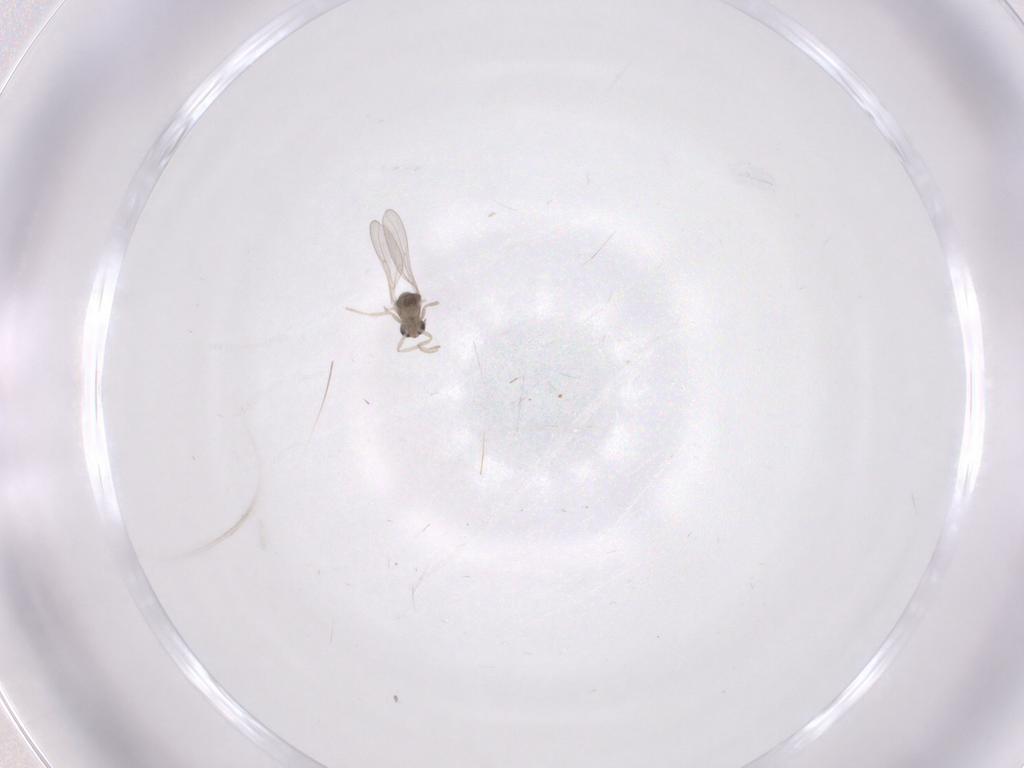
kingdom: Animalia
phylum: Arthropoda
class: Insecta
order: Diptera
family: Cecidomyiidae
